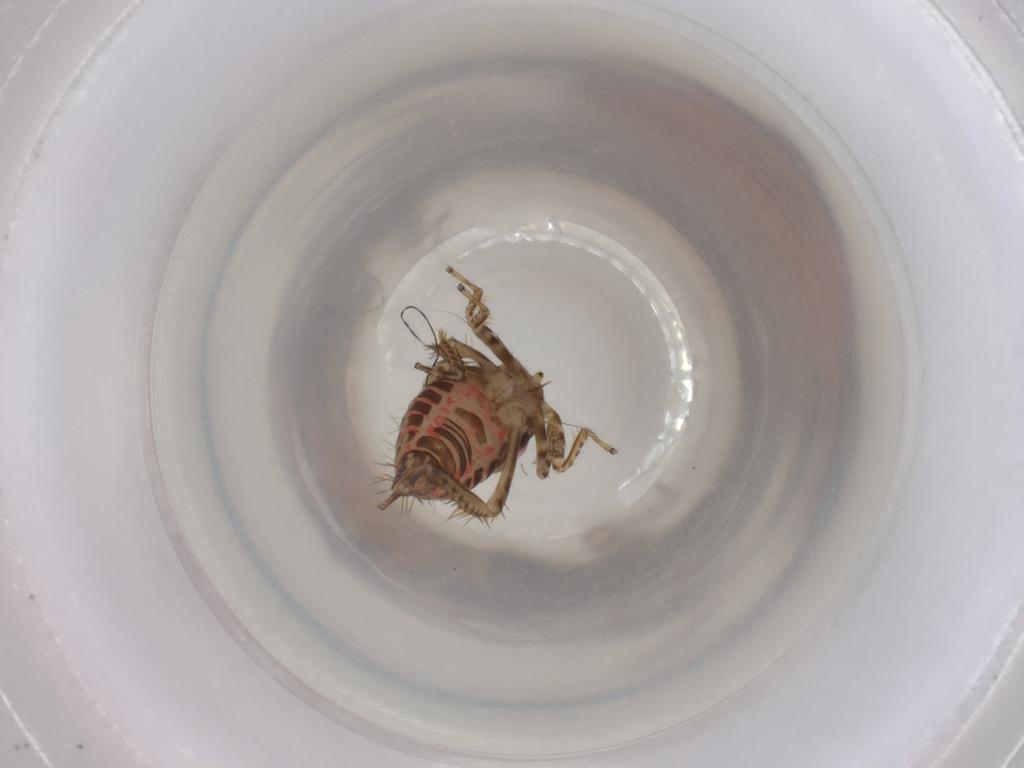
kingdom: Animalia
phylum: Arthropoda
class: Insecta
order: Orthoptera
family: Gryllidae
